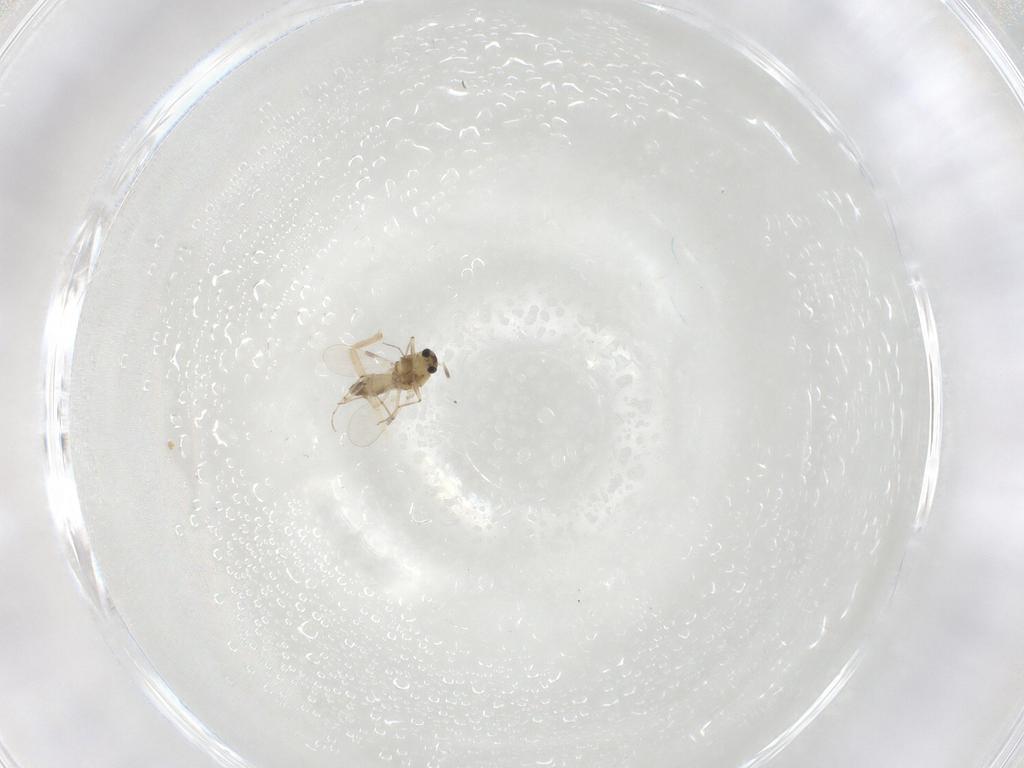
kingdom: Animalia
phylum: Arthropoda
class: Insecta
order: Diptera
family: Chironomidae
